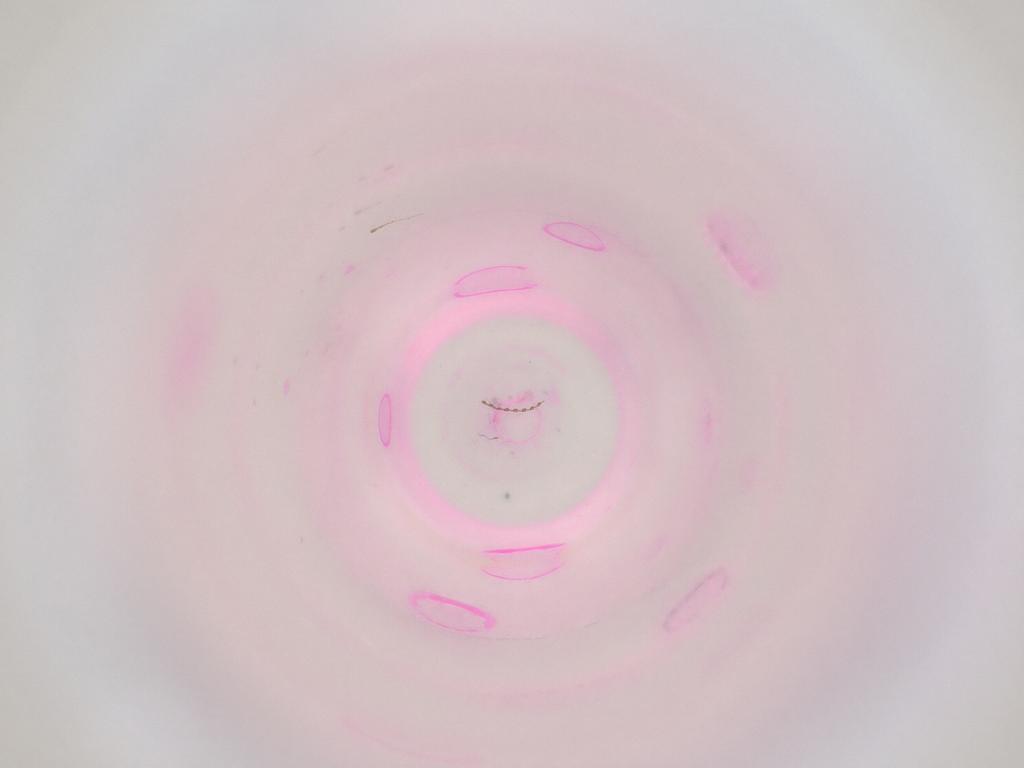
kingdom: Animalia
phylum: Arthropoda
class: Insecta
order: Diptera
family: Cecidomyiidae
